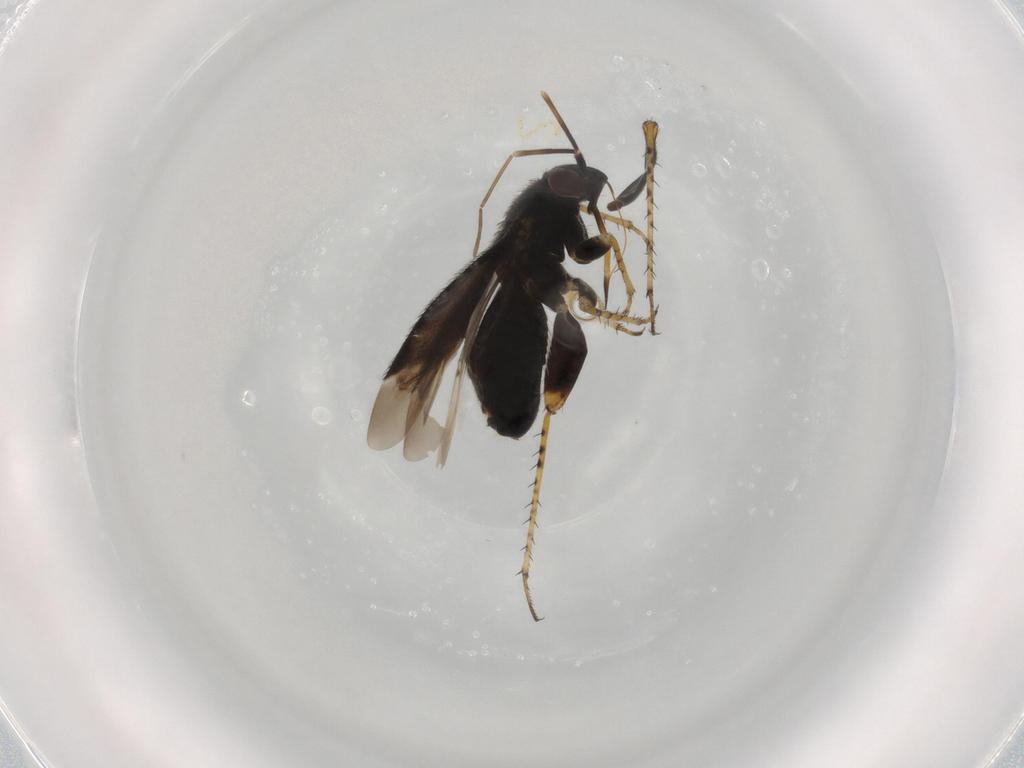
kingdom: Animalia
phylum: Arthropoda
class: Insecta
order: Hemiptera
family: Miridae
